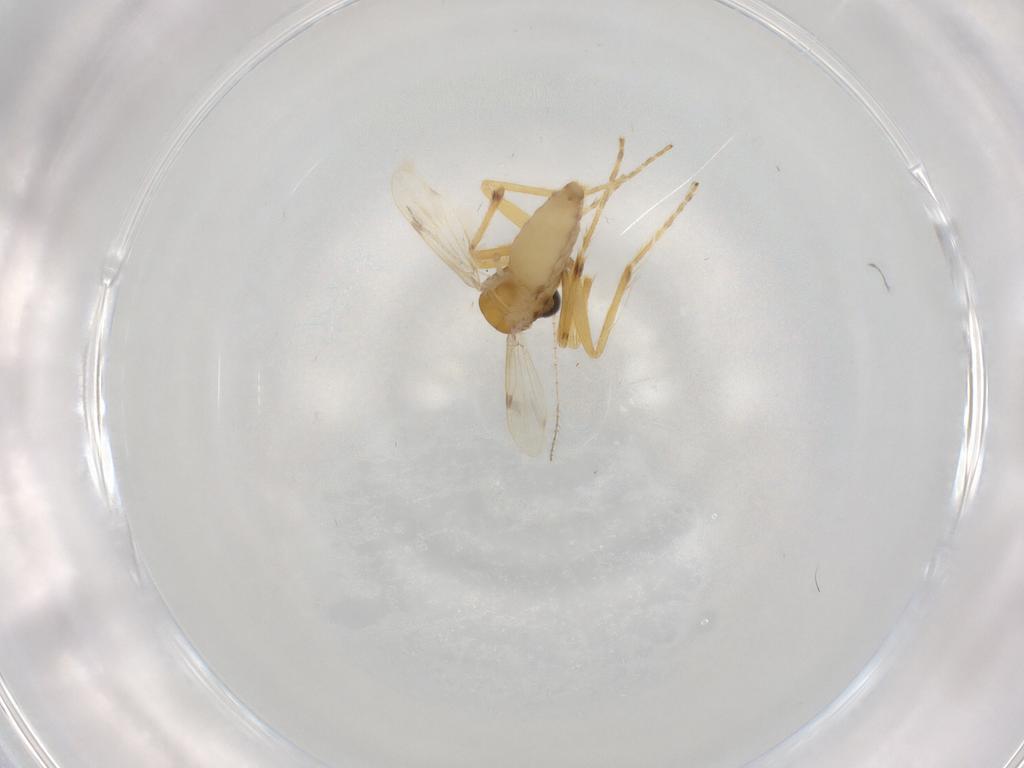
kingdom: Animalia
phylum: Arthropoda
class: Insecta
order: Diptera
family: Corethrellidae
